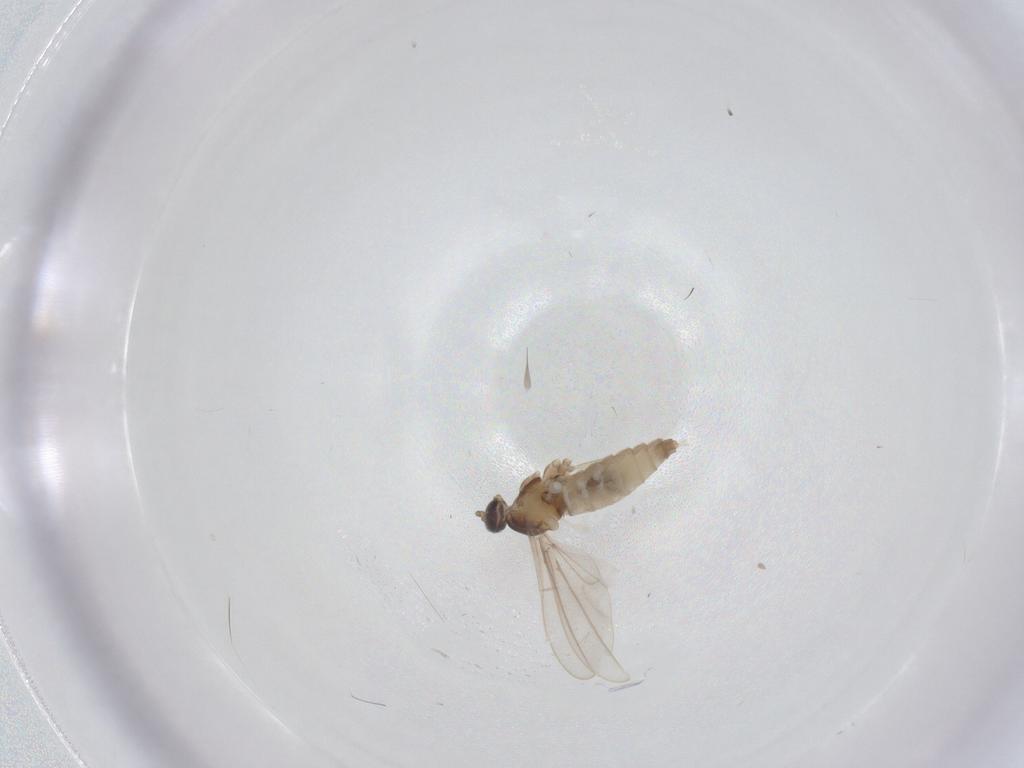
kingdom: Animalia
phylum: Arthropoda
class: Insecta
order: Diptera
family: Cecidomyiidae
